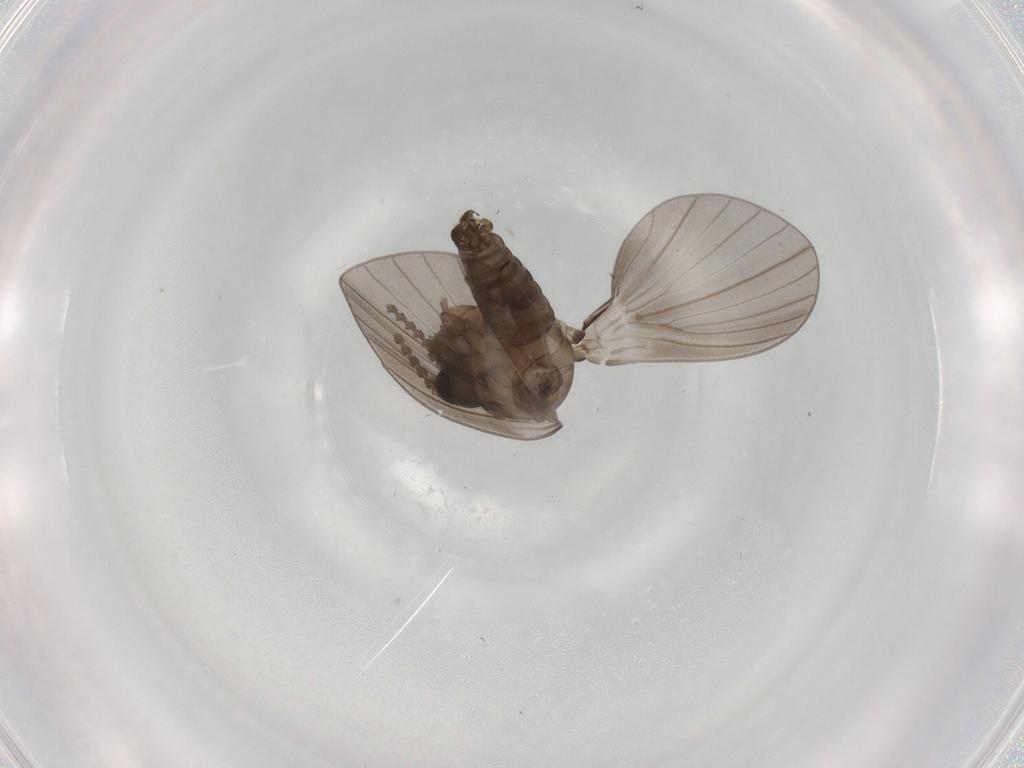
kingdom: Animalia
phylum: Arthropoda
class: Insecta
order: Diptera
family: Psychodidae
